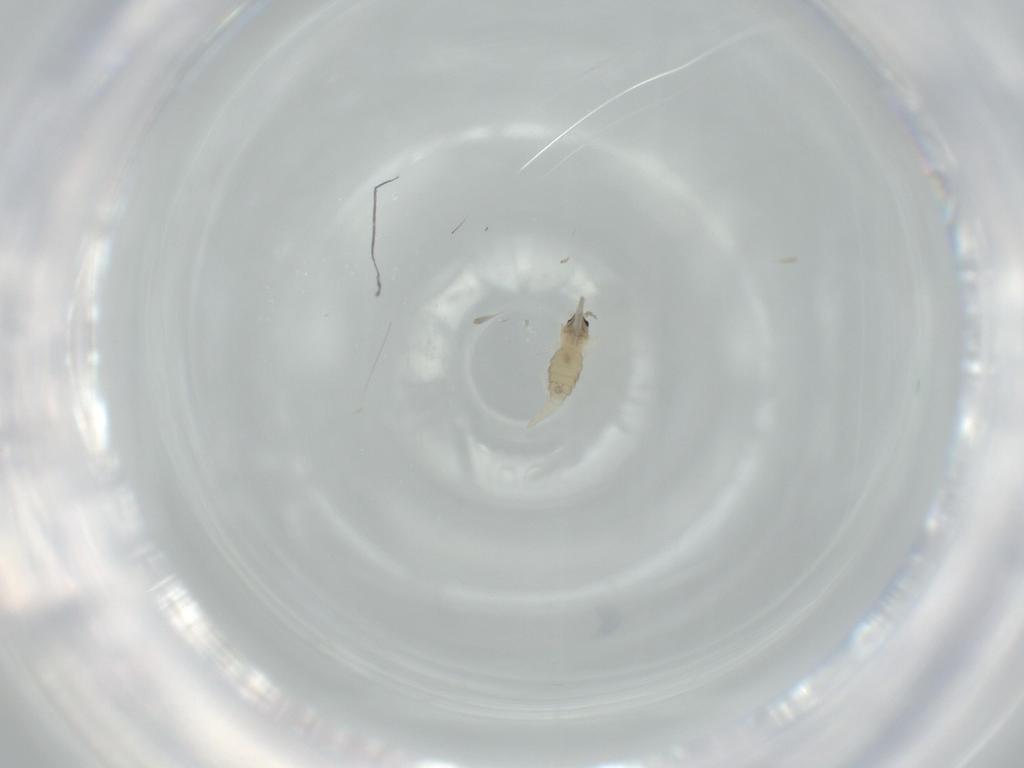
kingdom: Animalia
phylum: Arthropoda
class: Insecta
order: Diptera
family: Cecidomyiidae
